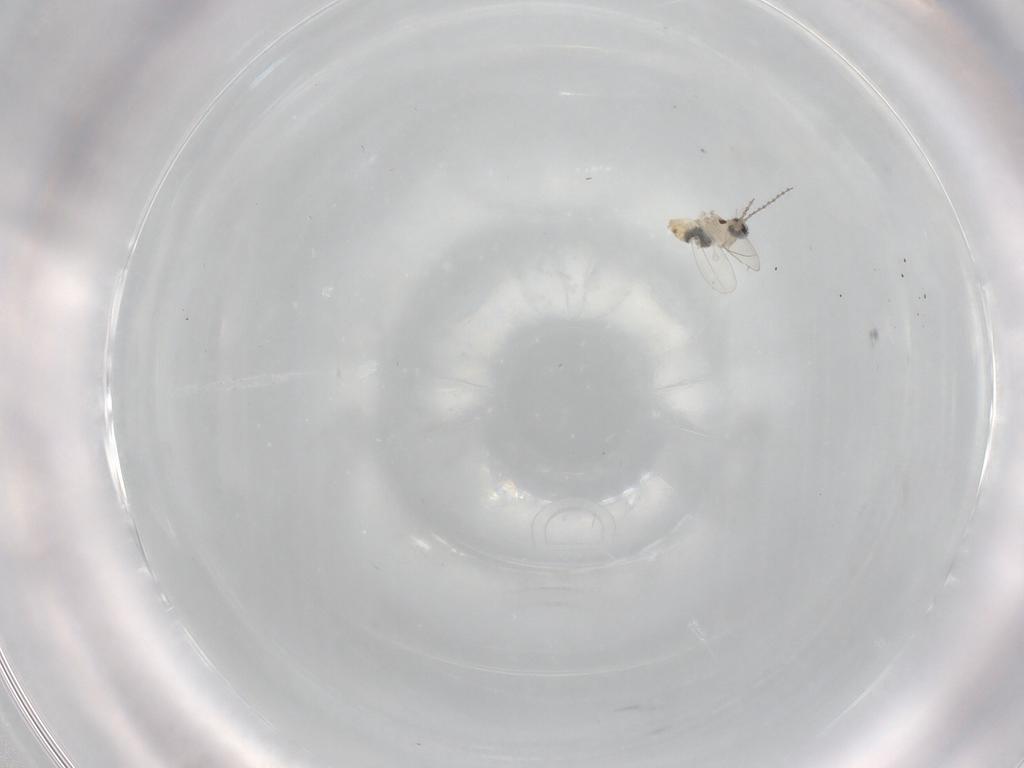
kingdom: Animalia
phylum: Arthropoda
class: Insecta
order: Diptera
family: Cecidomyiidae
